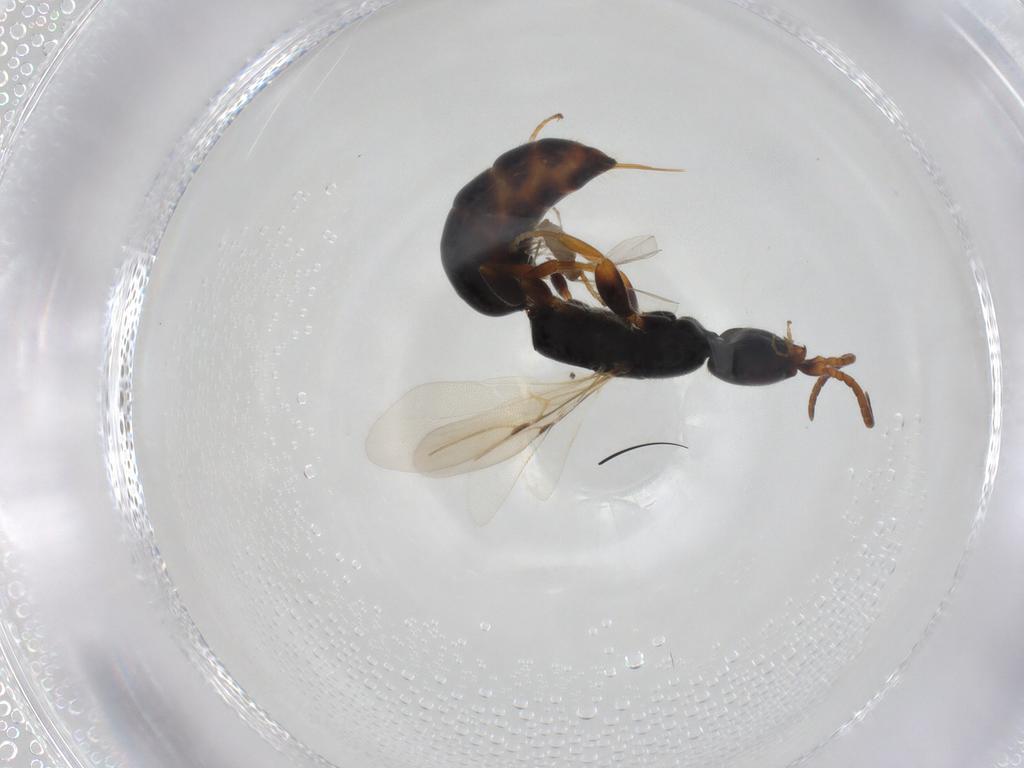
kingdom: Animalia
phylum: Arthropoda
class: Insecta
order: Hymenoptera
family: Bethylidae
